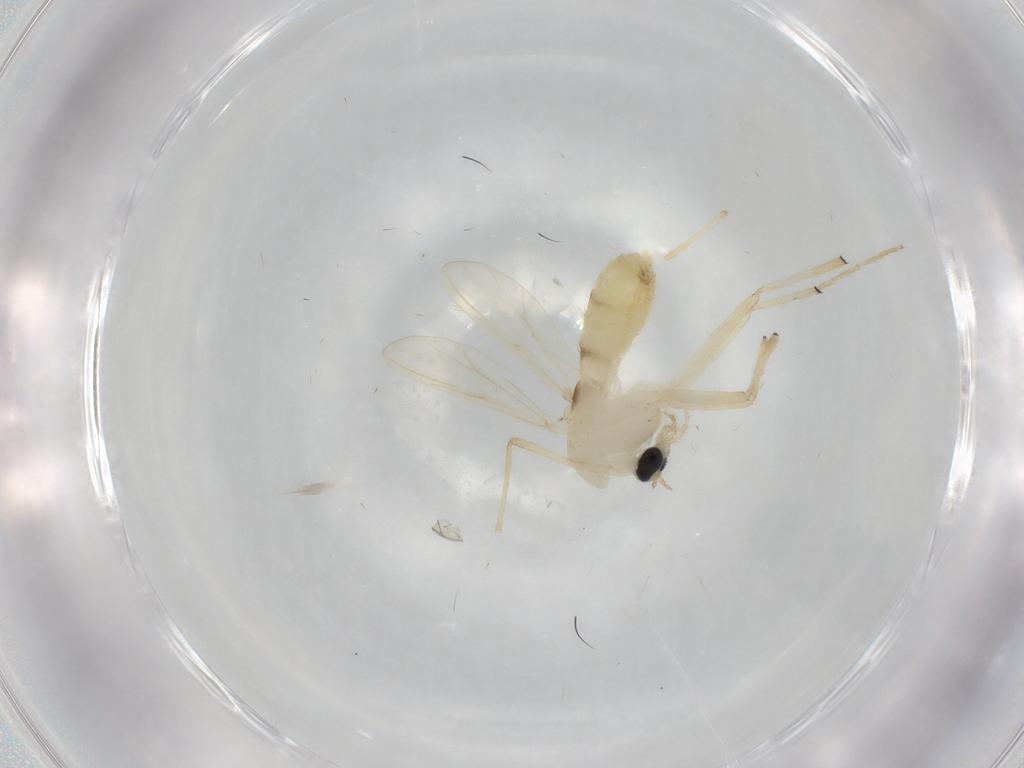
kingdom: Animalia
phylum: Arthropoda
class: Insecta
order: Diptera
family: Chironomidae
